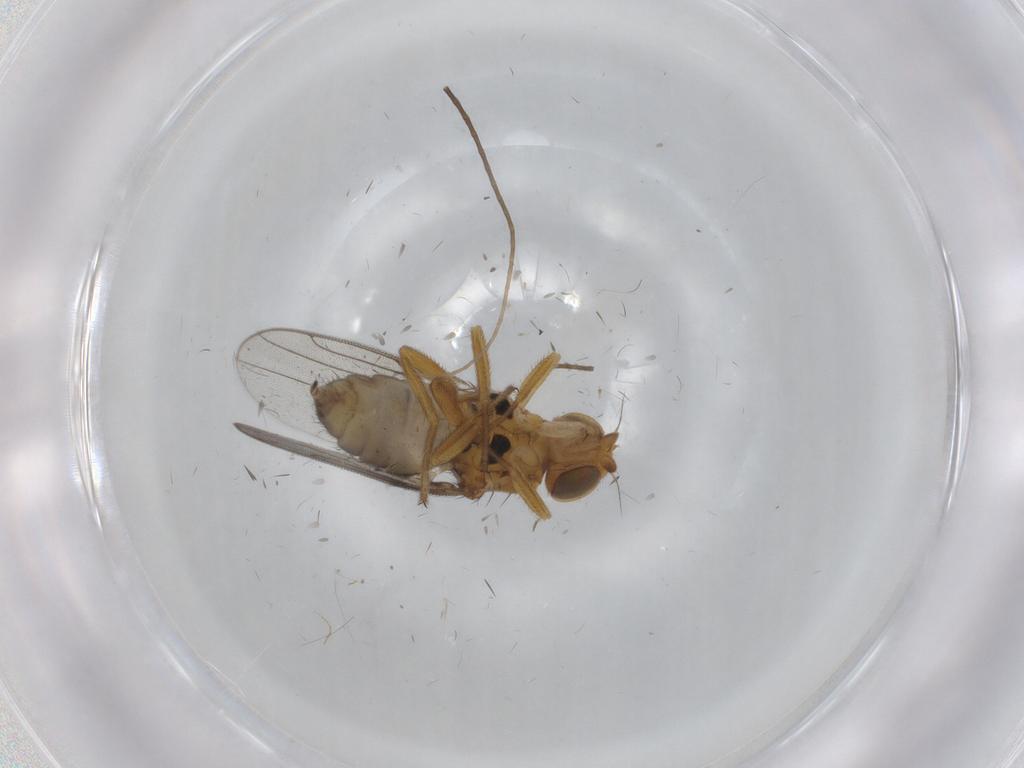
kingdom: Animalia
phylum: Arthropoda
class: Insecta
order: Diptera
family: Chloropidae
